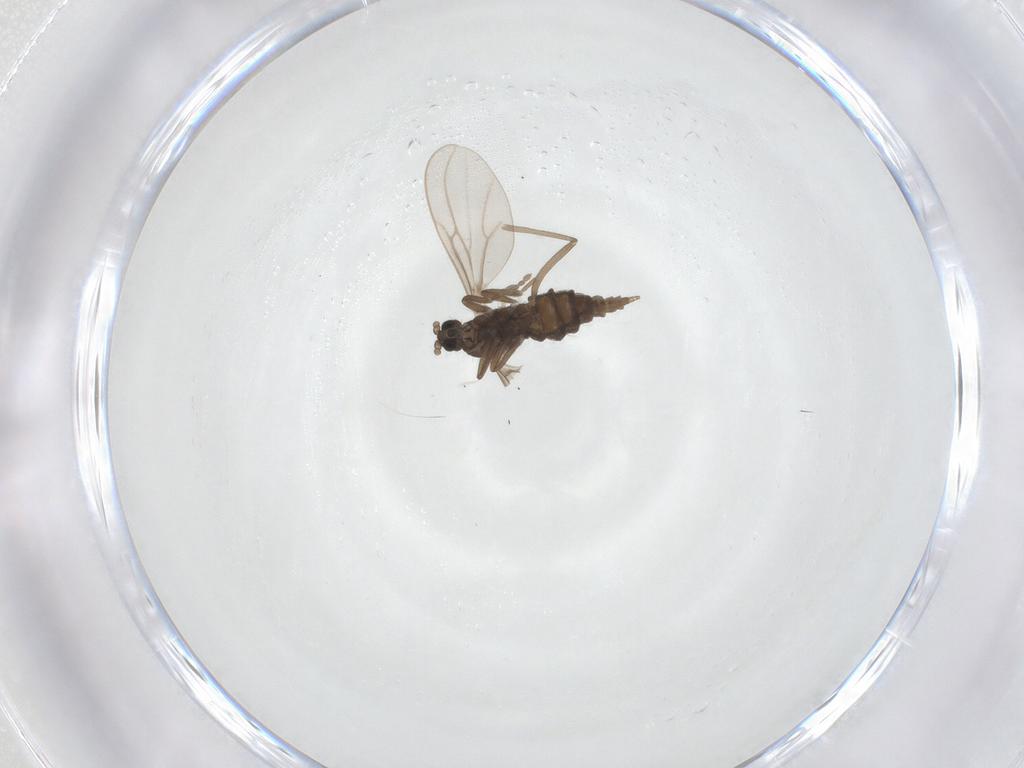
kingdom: Animalia
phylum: Arthropoda
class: Insecta
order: Diptera
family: Cecidomyiidae
